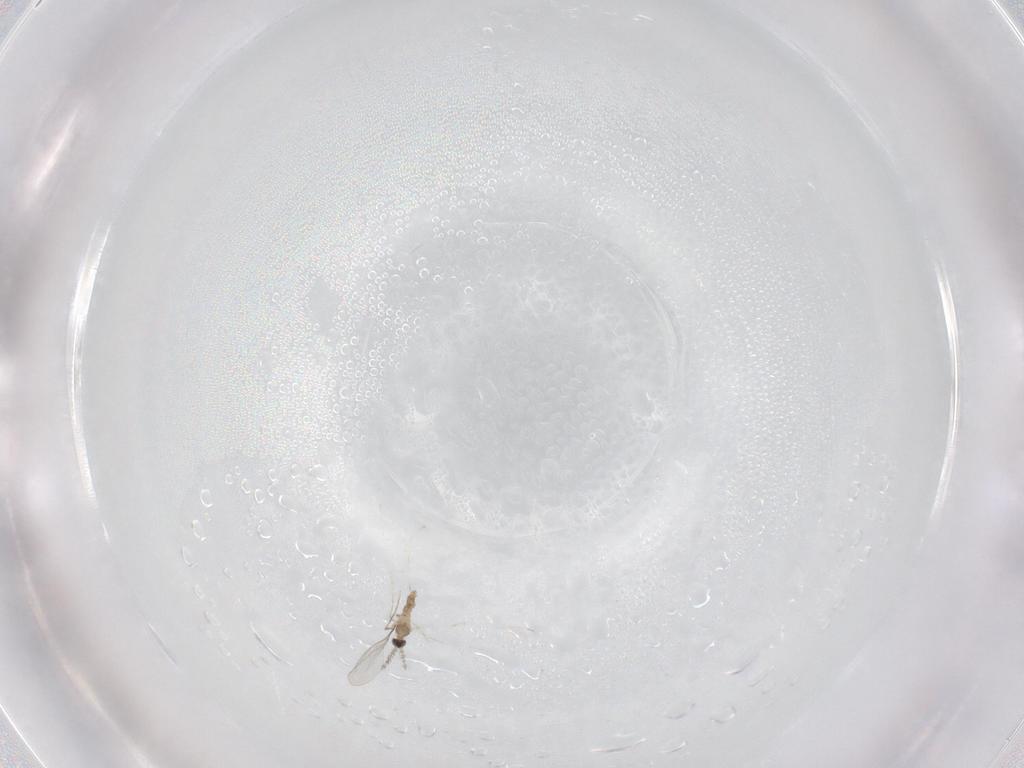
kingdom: Animalia
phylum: Arthropoda
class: Insecta
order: Diptera
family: Cecidomyiidae
